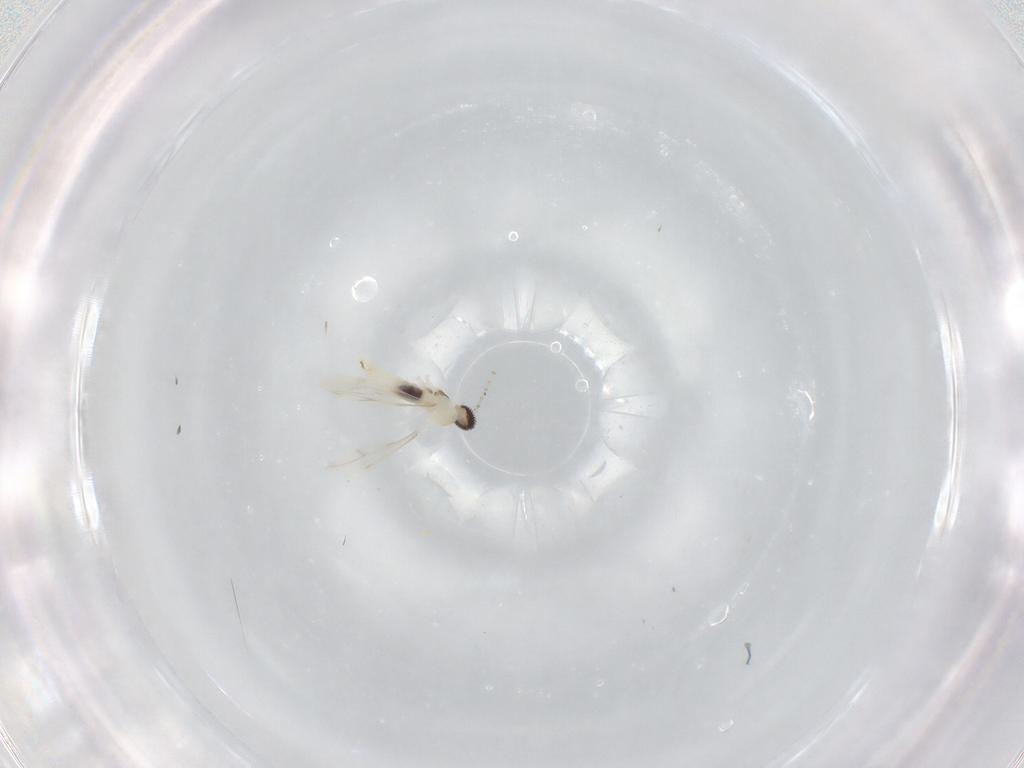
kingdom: Animalia
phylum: Arthropoda
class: Insecta
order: Diptera
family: Cecidomyiidae
